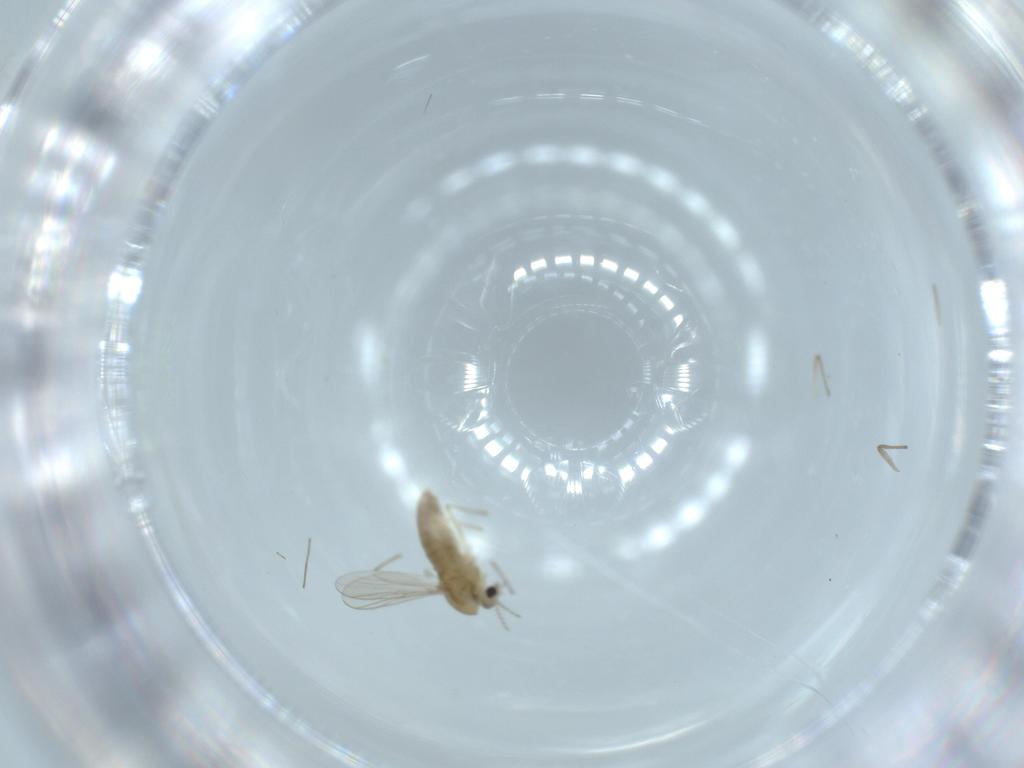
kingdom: Animalia
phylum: Arthropoda
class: Insecta
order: Diptera
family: Chironomidae
